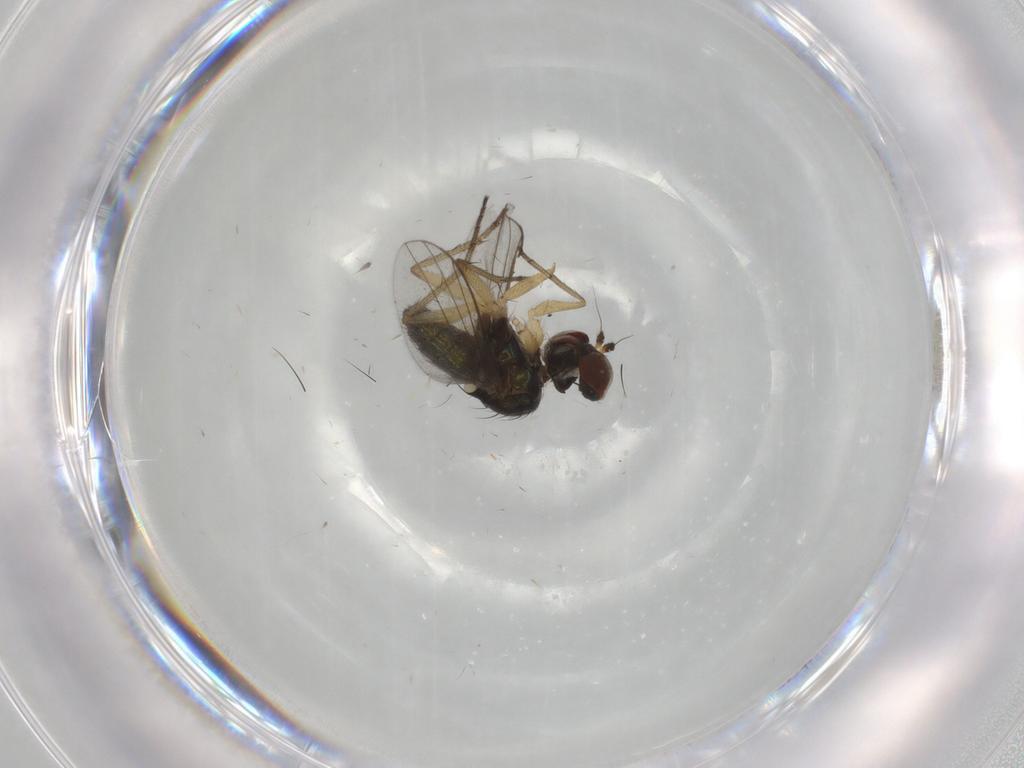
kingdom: Animalia
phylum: Arthropoda
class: Insecta
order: Diptera
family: Dolichopodidae
